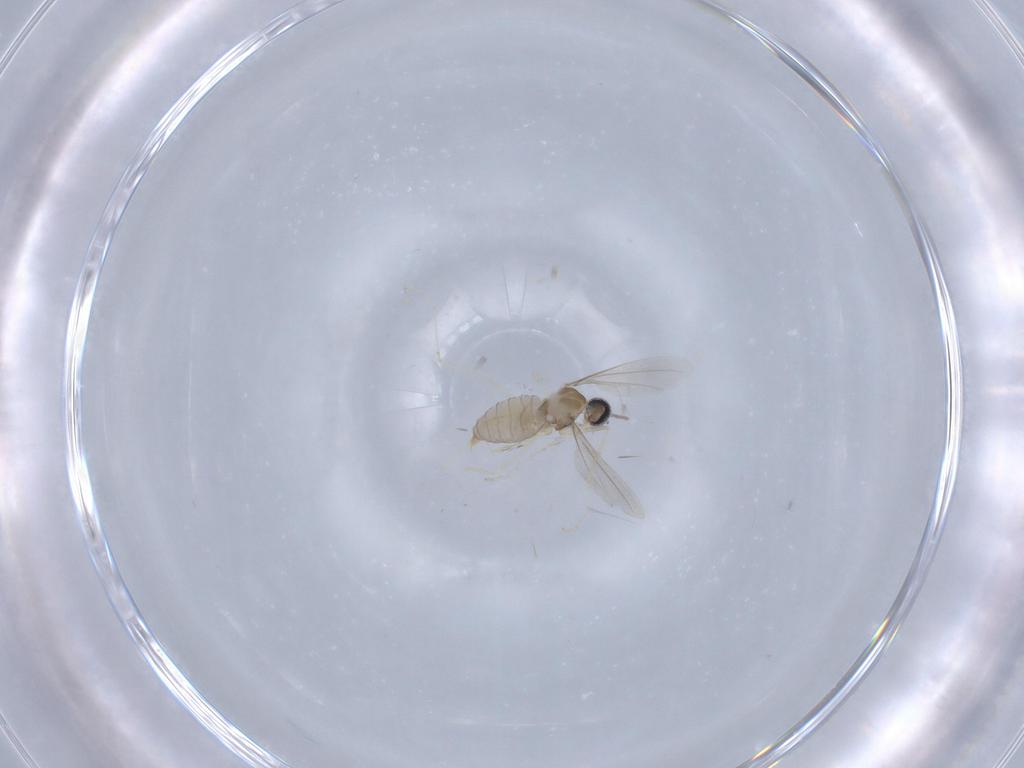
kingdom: Animalia
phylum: Arthropoda
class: Insecta
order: Diptera
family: Cecidomyiidae
